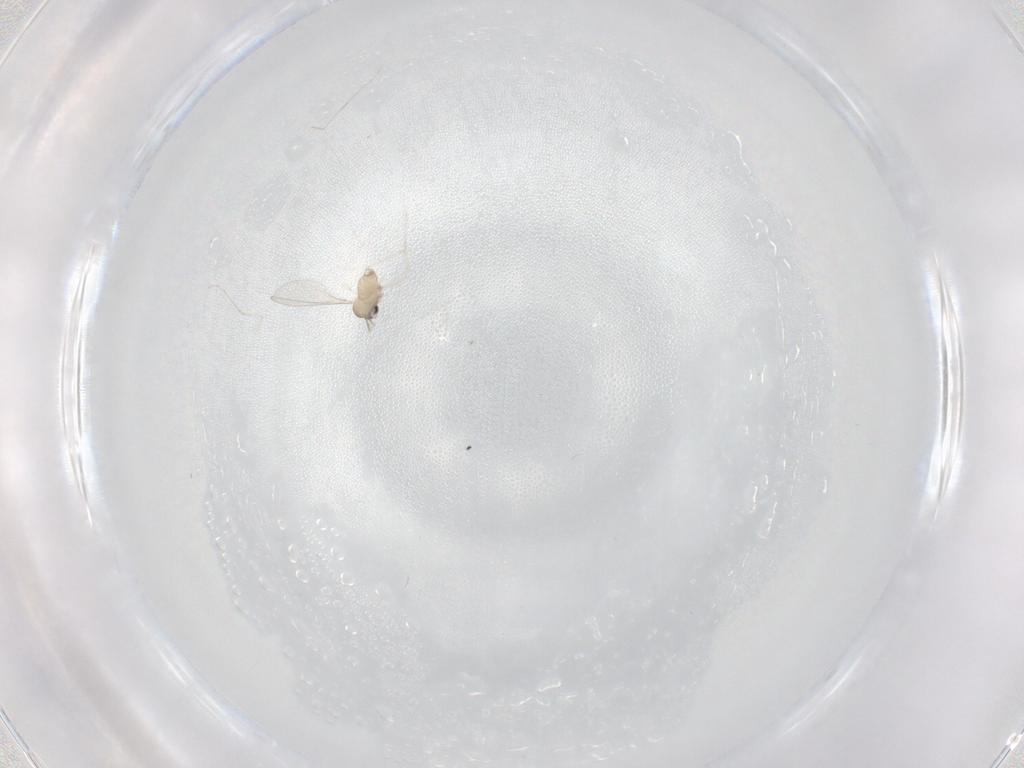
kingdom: Animalia
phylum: Arthropoda
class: Insecta
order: Diptera
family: Cecidomyiidae
